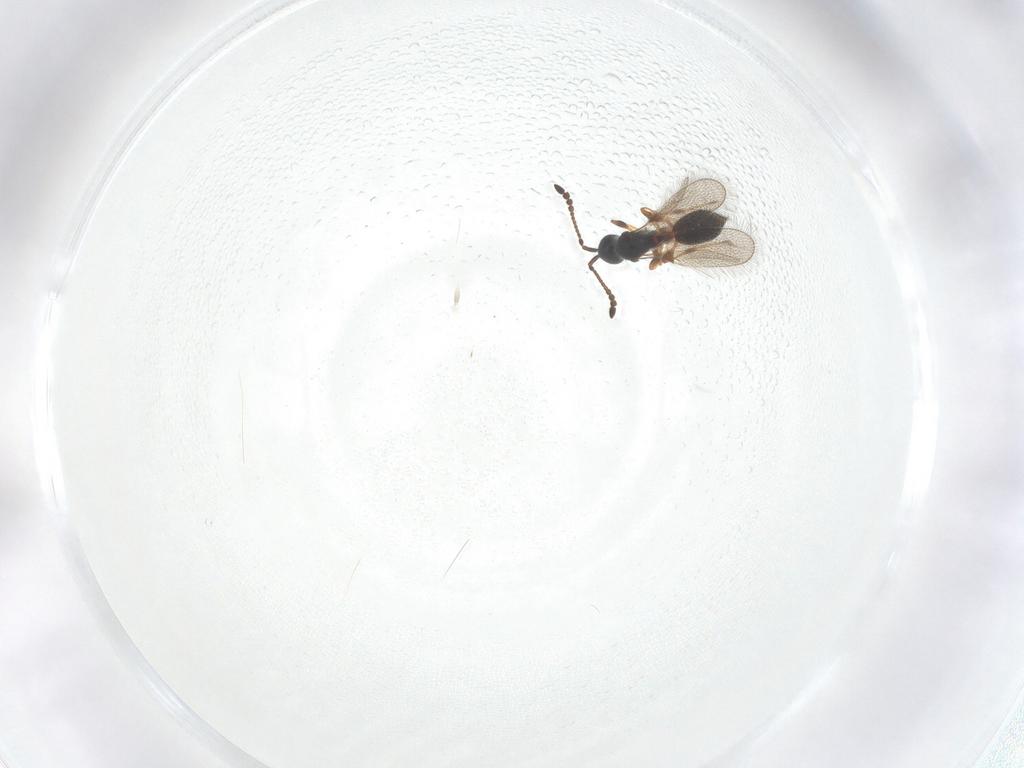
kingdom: Animalia
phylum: Arthropoda
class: Insecta
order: Hymenoptera
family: Diapriidae
